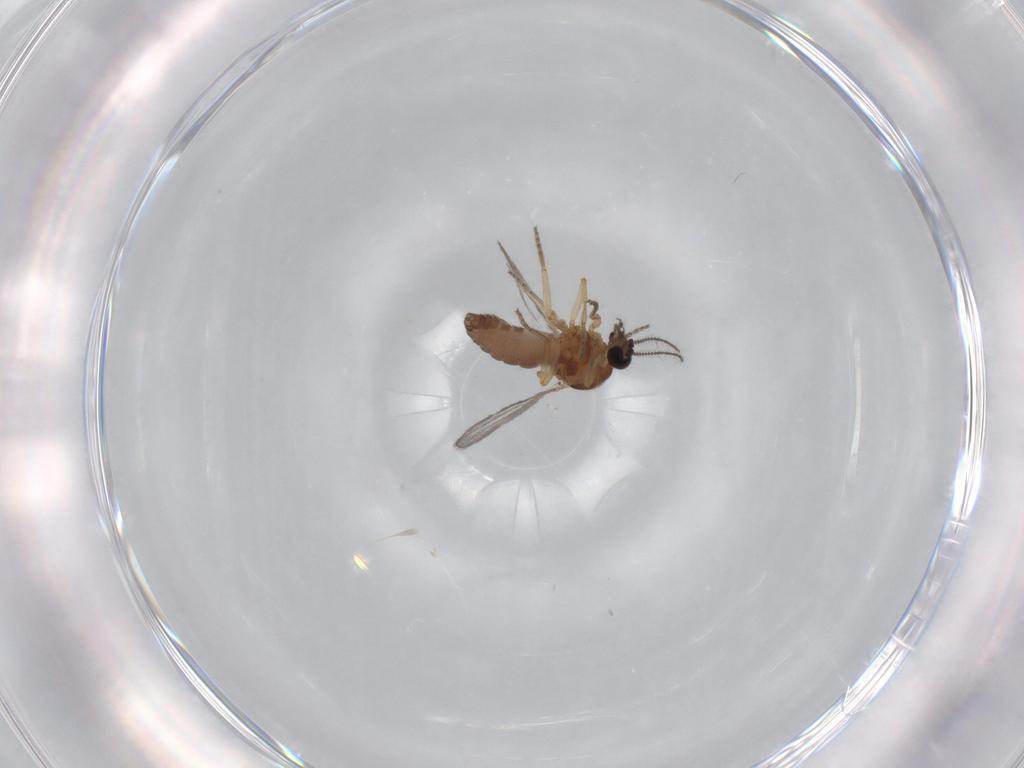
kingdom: Animalia
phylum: Arthropoda
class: Insecta
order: Diptera
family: Ceratopogonidae
